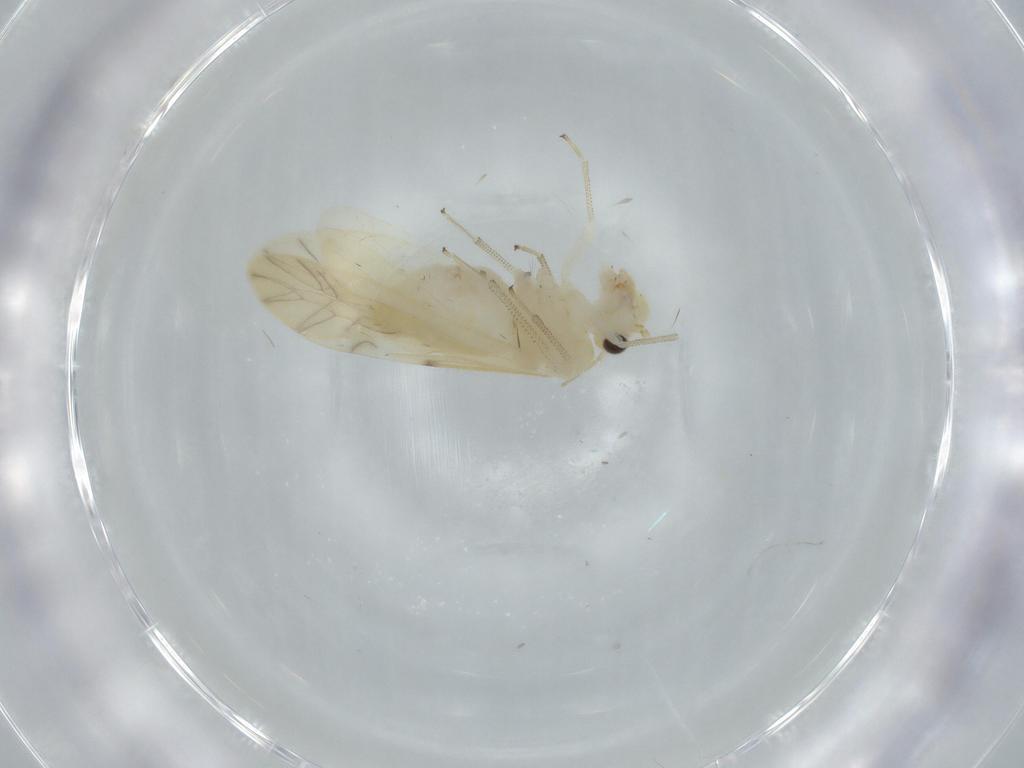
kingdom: Animalia
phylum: Arthropoda
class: Insecta
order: Psocodea
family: Caeciliusidae
